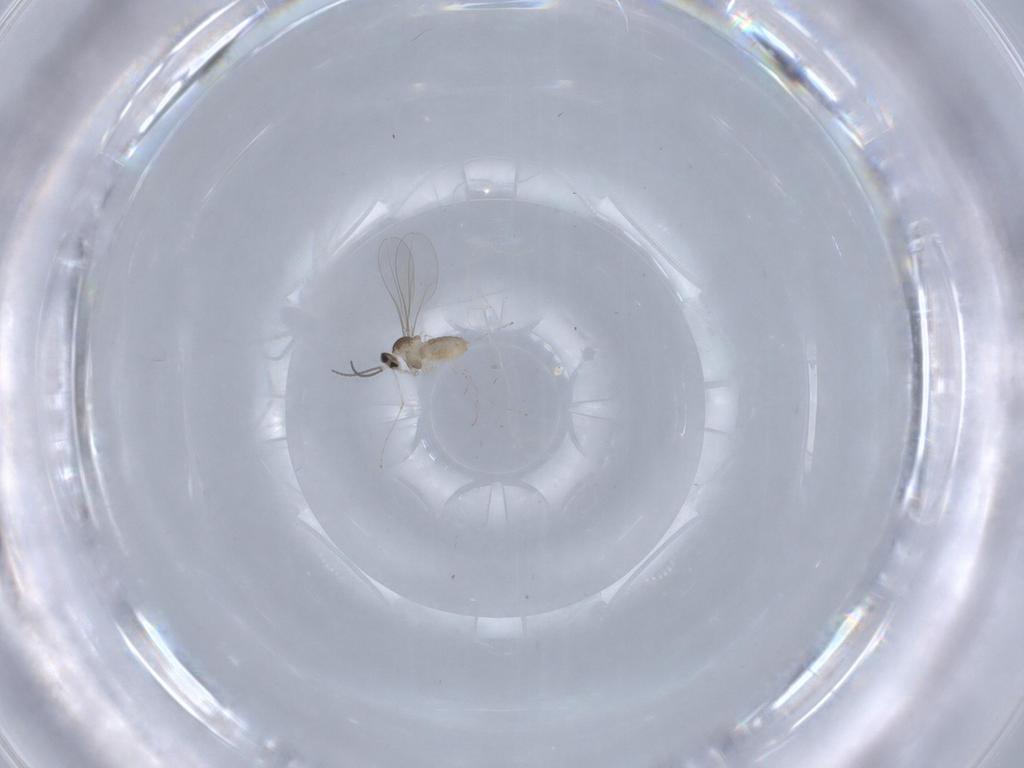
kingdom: Animalia
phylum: Arthropoda
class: Insecta
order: Diptera
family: Cecidomyiidae
